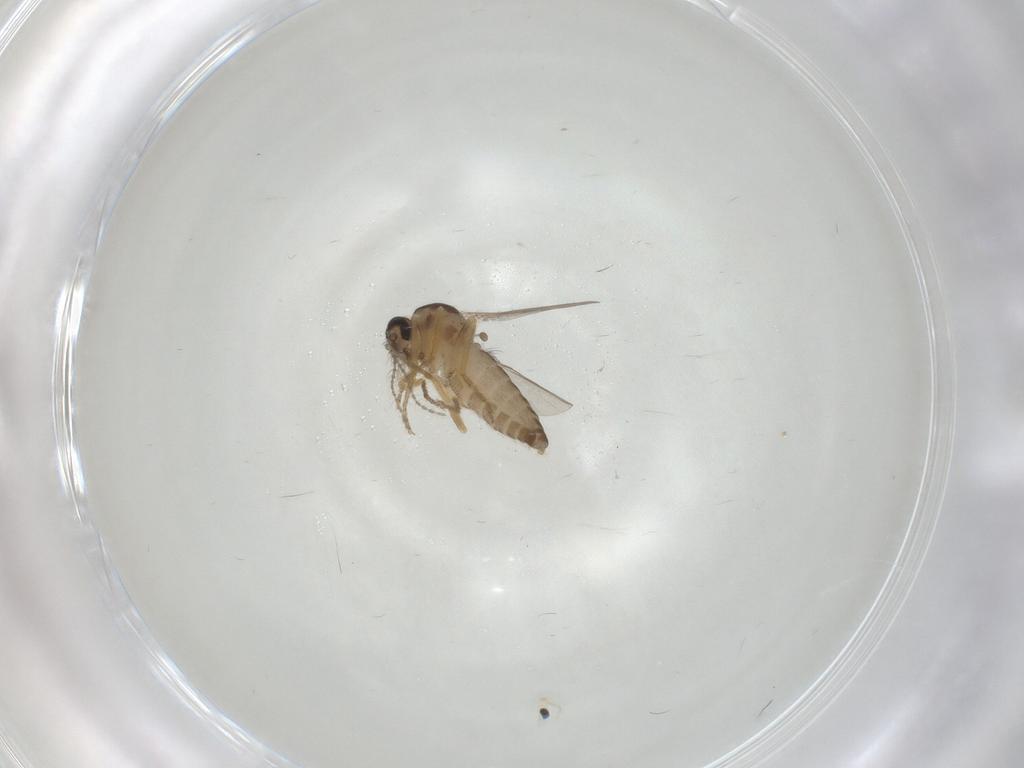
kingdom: Animalia
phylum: Arthropoda
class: Insecta
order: Diptera
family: Ceratopogonidae
